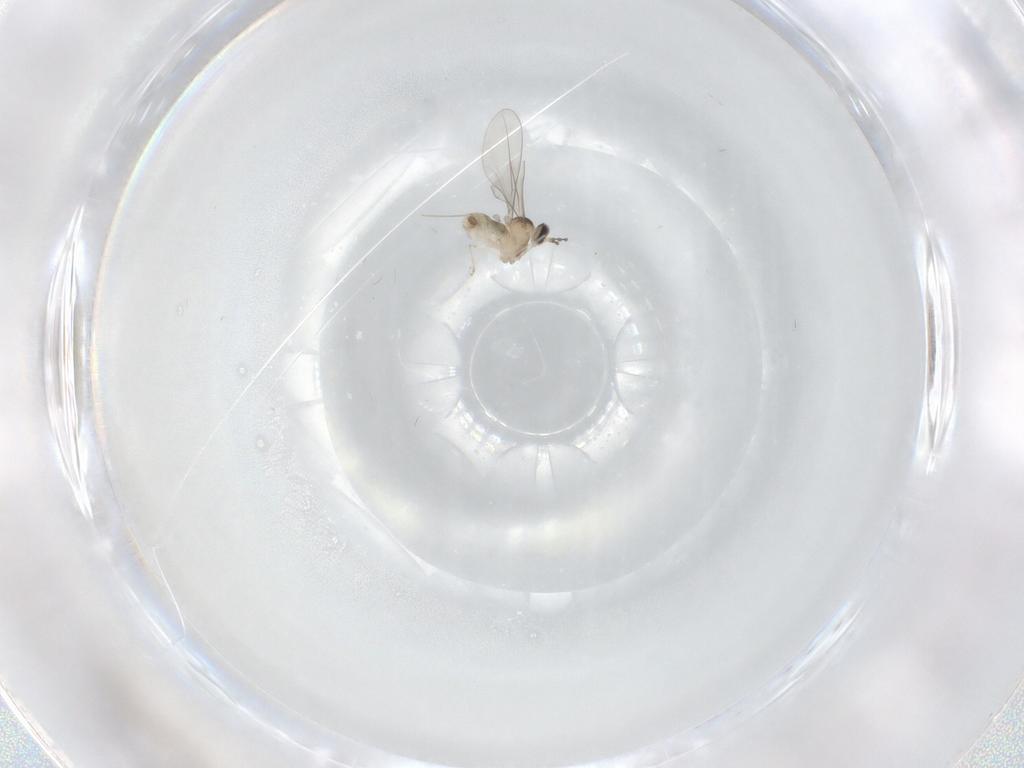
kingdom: Animalia
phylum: Arthropoda
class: Insecta
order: Diptera
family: Cecidomyiidae
